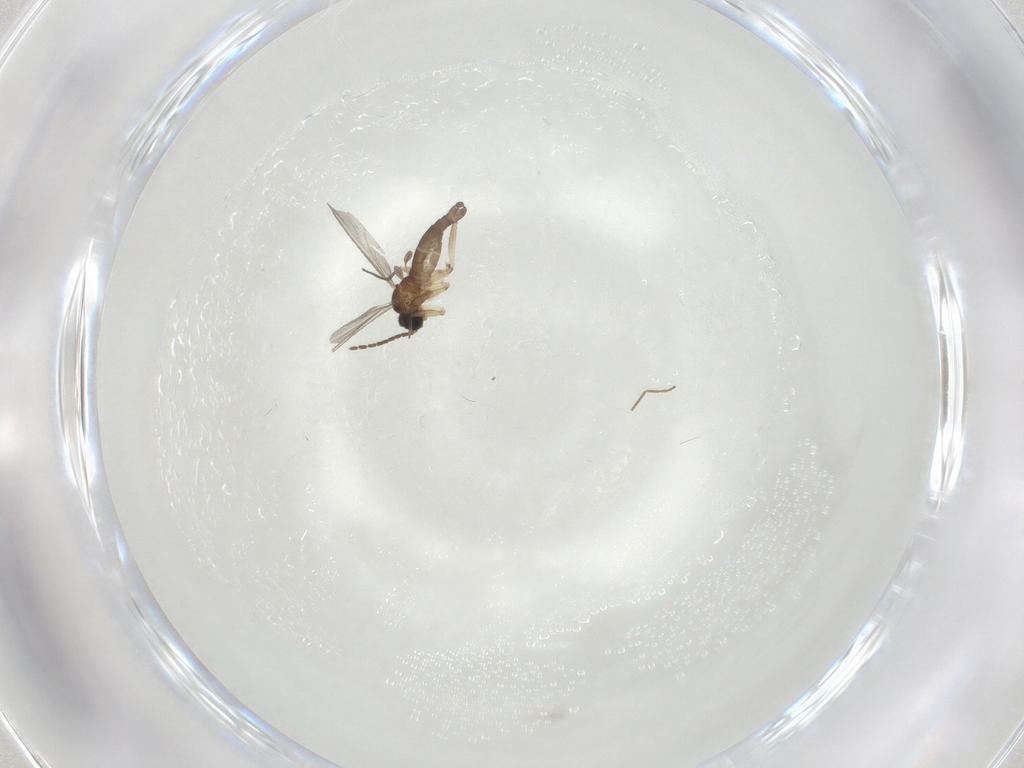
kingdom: Animalia
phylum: Arthropoda
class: Insecta
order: Diptera
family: Sciaridae
